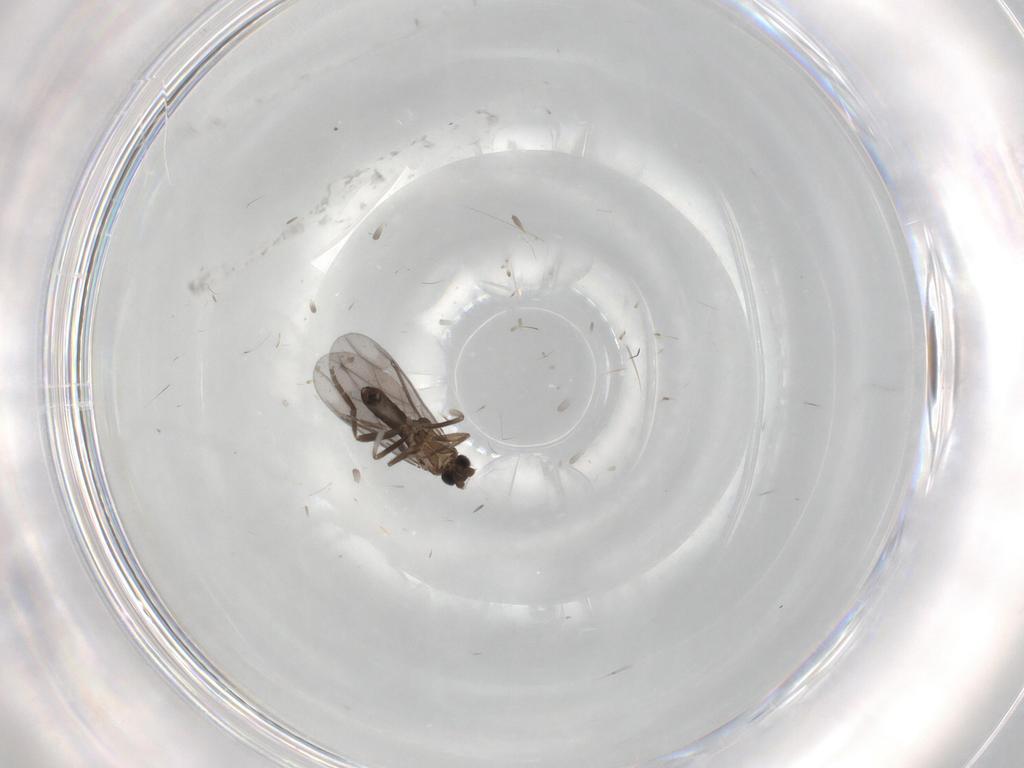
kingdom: Animalia
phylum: Arthropoda
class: Insecta
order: Diptera
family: Phoridae
